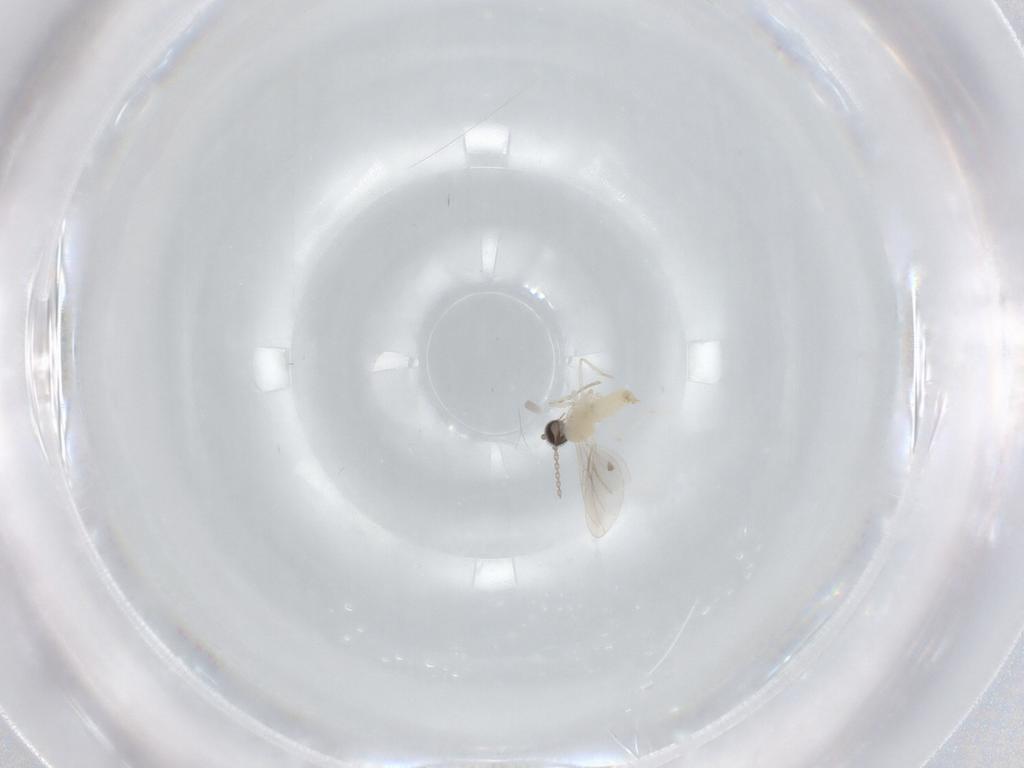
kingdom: Animalia
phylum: Arthropoda
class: Insecta
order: Diptera
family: Cecidomyiidae
